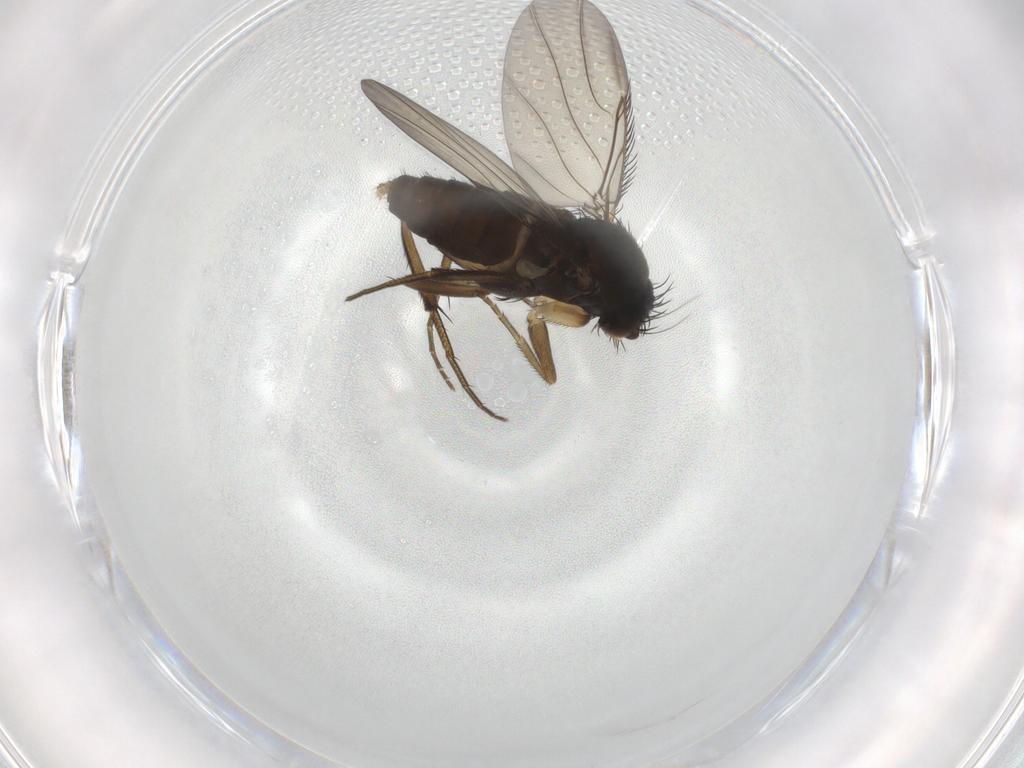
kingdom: Animalia
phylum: Arthropoda
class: Insecta
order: Diptera
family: Phoridae
